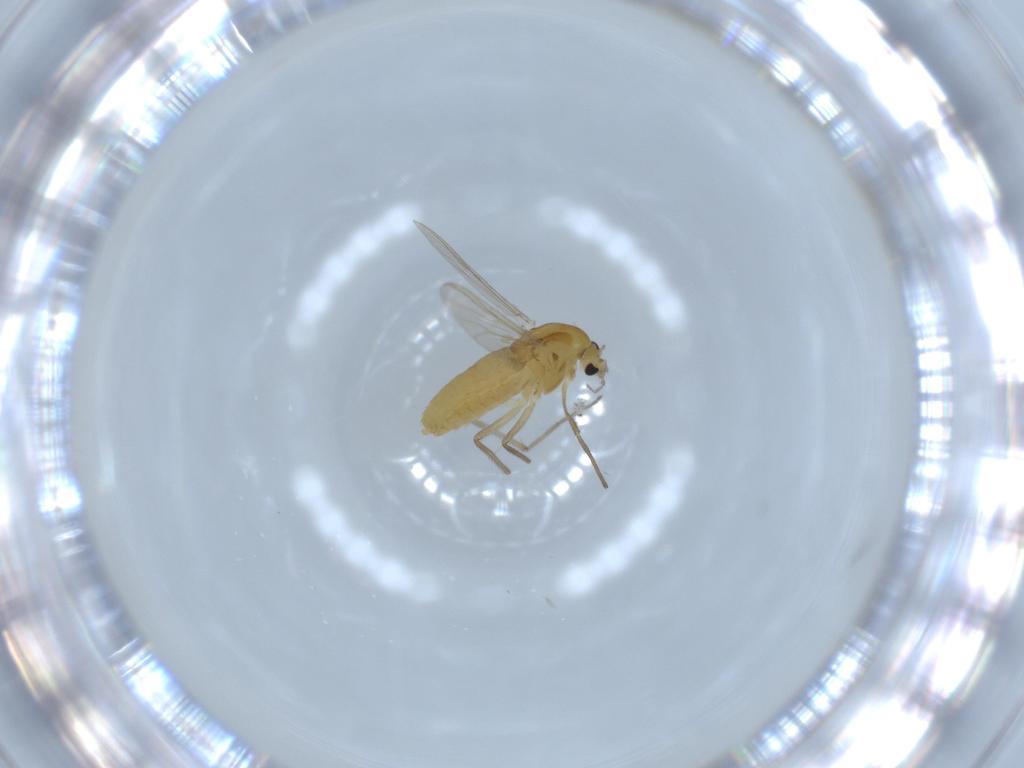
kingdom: Animalia
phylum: Arthropoda
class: Insecta
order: Diptera
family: Chironomidae
